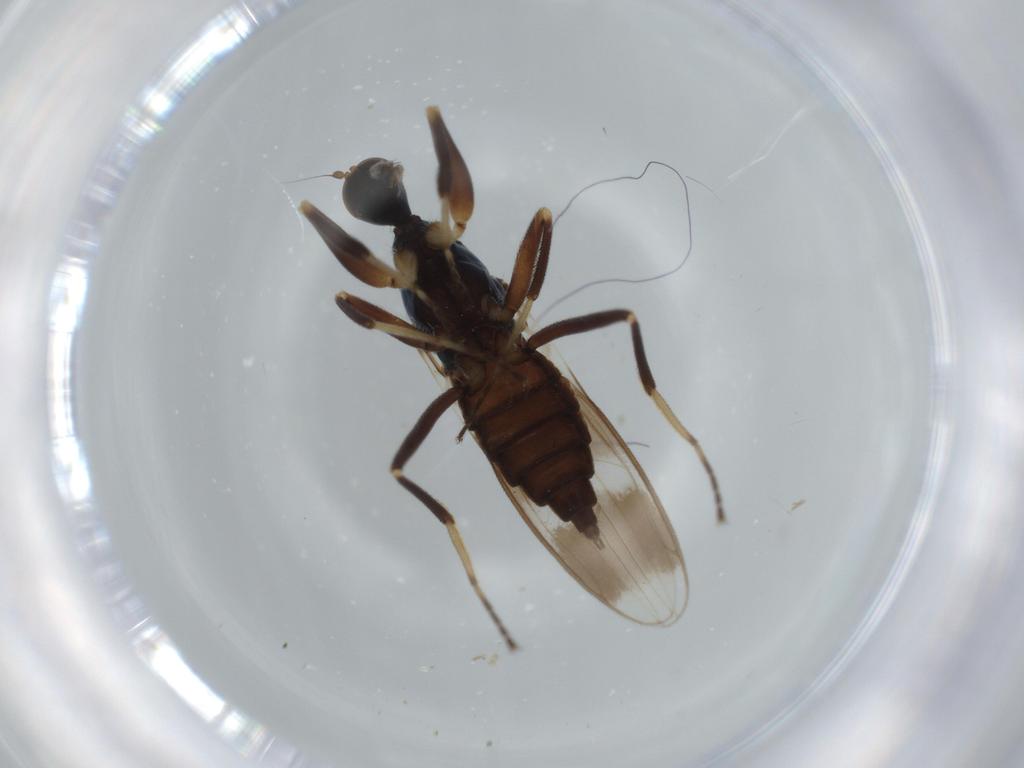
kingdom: Animalia
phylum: Arthropoda
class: Insecta
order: Diptera
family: Hybotidae
